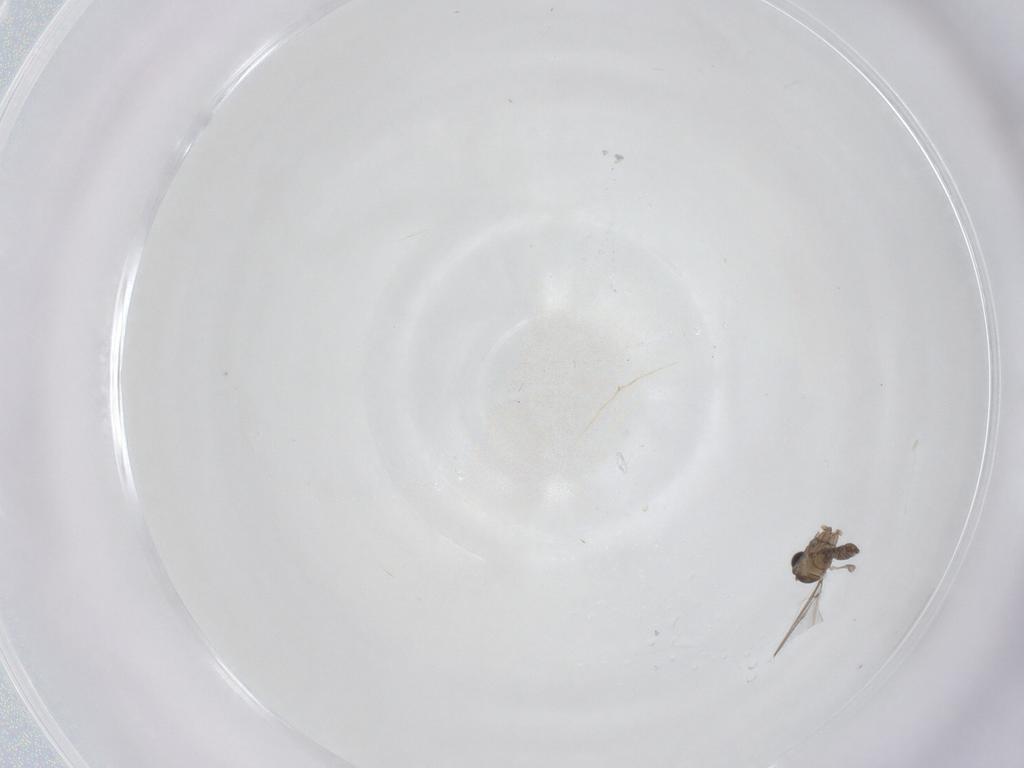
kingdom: Animalia
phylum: Arthropoda
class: Insecta
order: Diptera
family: Cecidomyiidae
